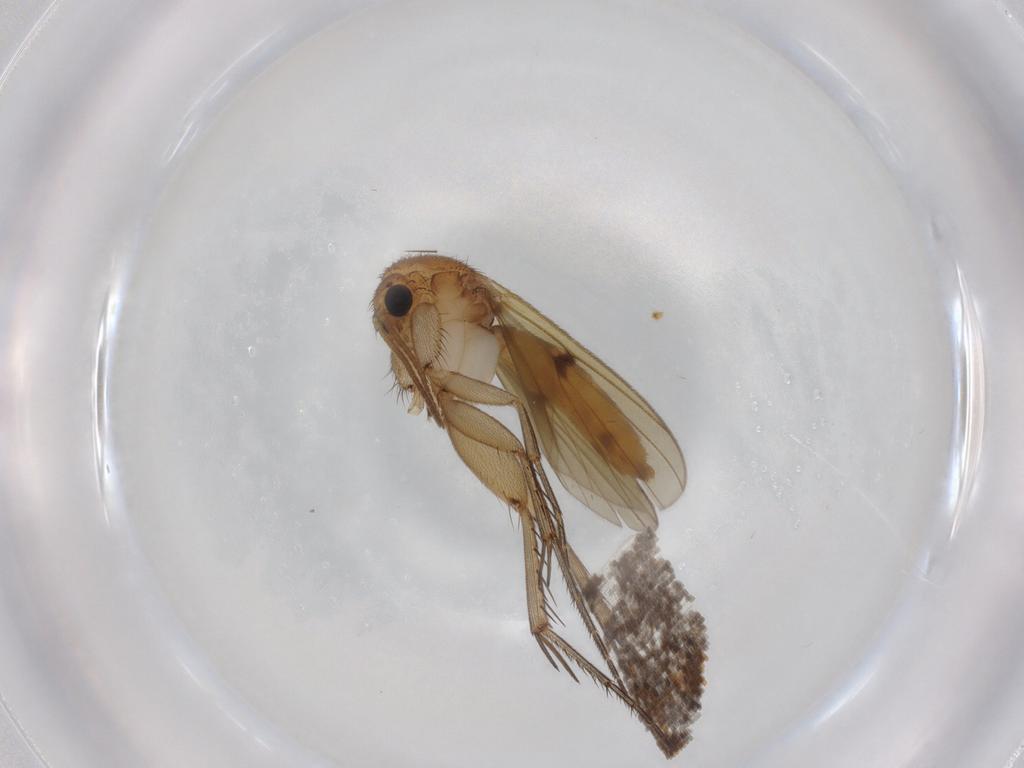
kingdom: Animalia
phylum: Arthropoda
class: Insecta
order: Diptera
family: Mycetophilidae
